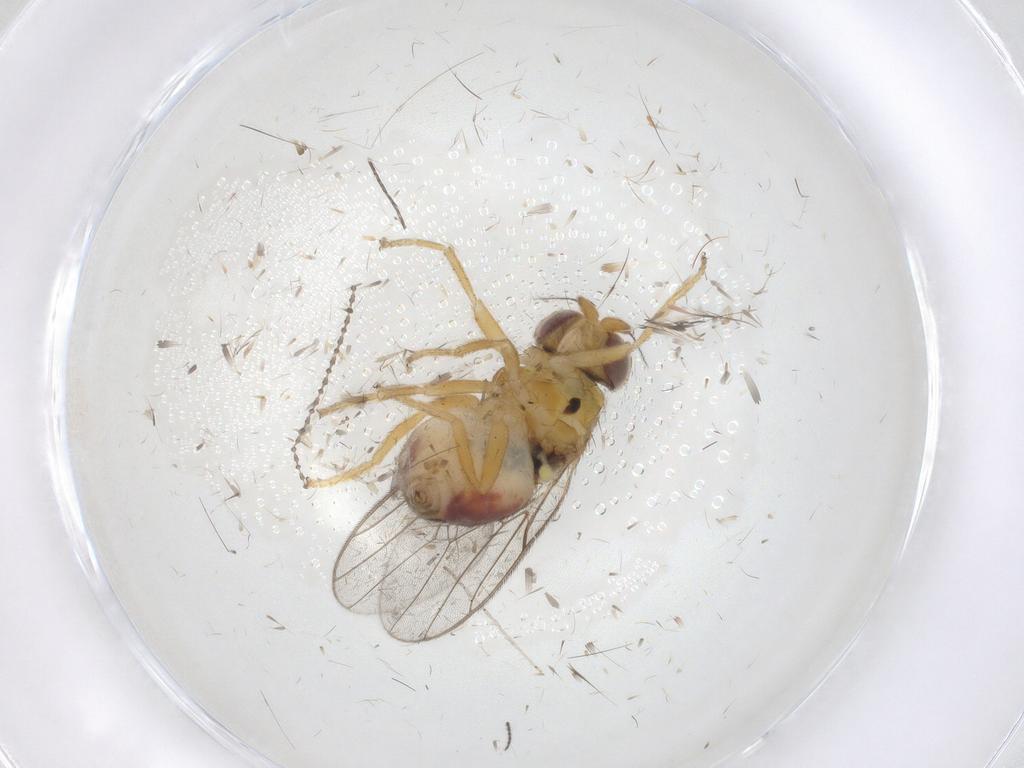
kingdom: Animalia
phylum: Arthropoda
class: Insecta
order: Diptera
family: Chloropidae
